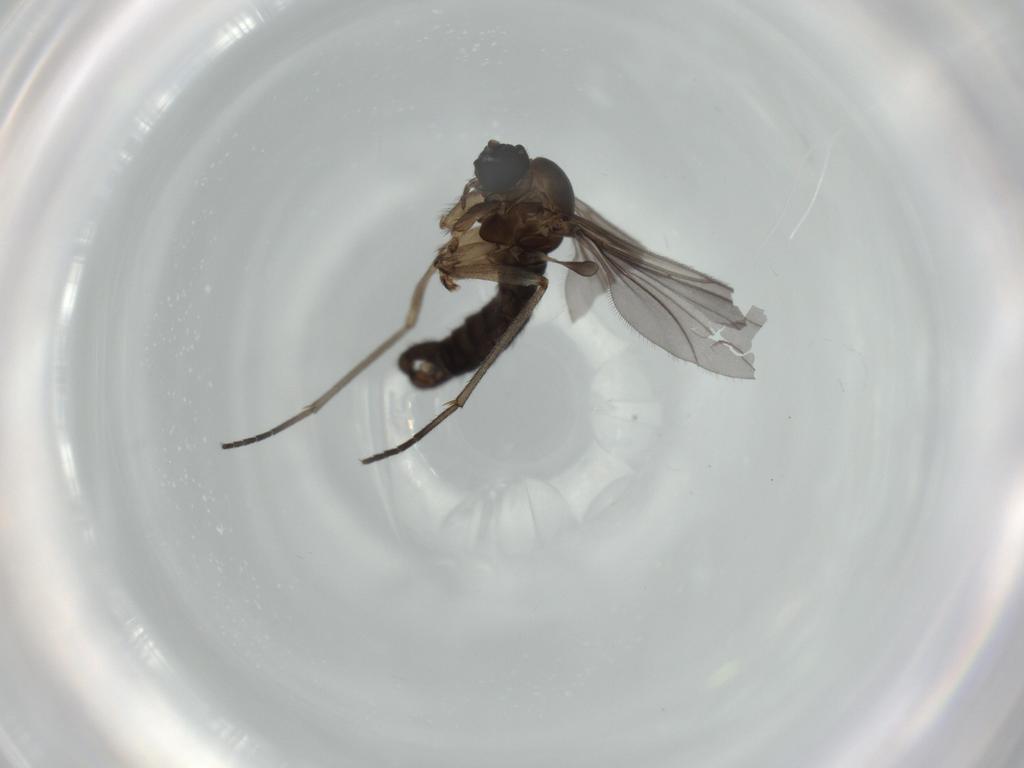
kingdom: Animalia
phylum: Arthropoda
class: Insecta
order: Diptera
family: Sciaridae
